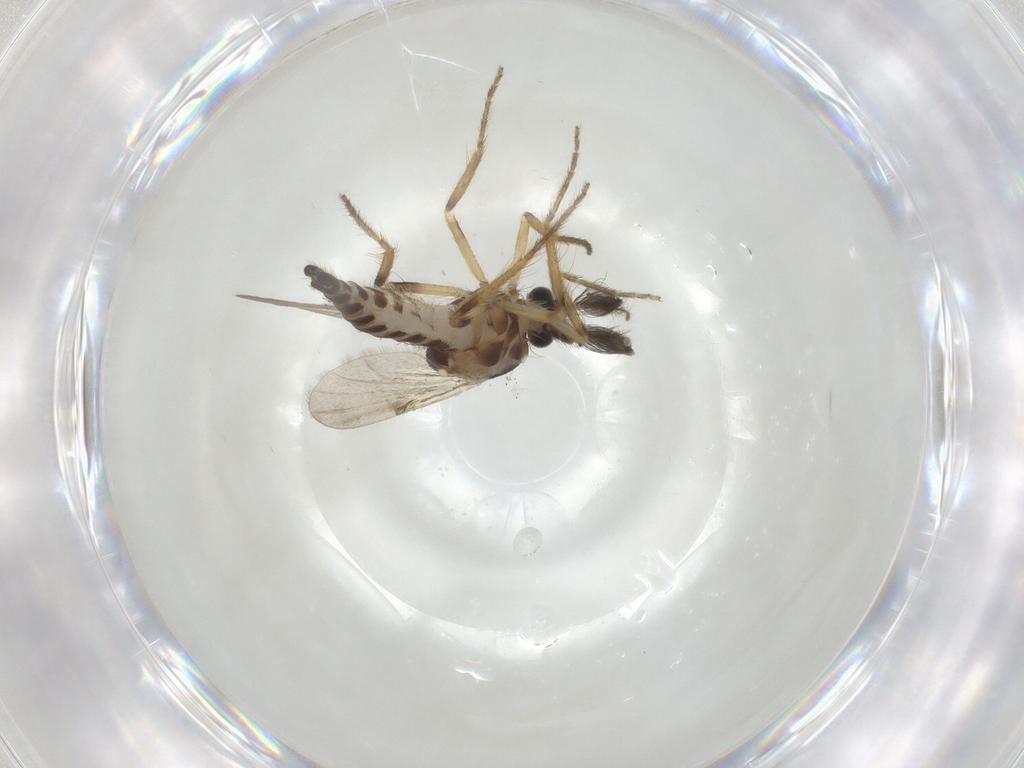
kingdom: Animalia
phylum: Arthropoda
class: Insecta
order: Diptera
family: Ceratopogonidae
